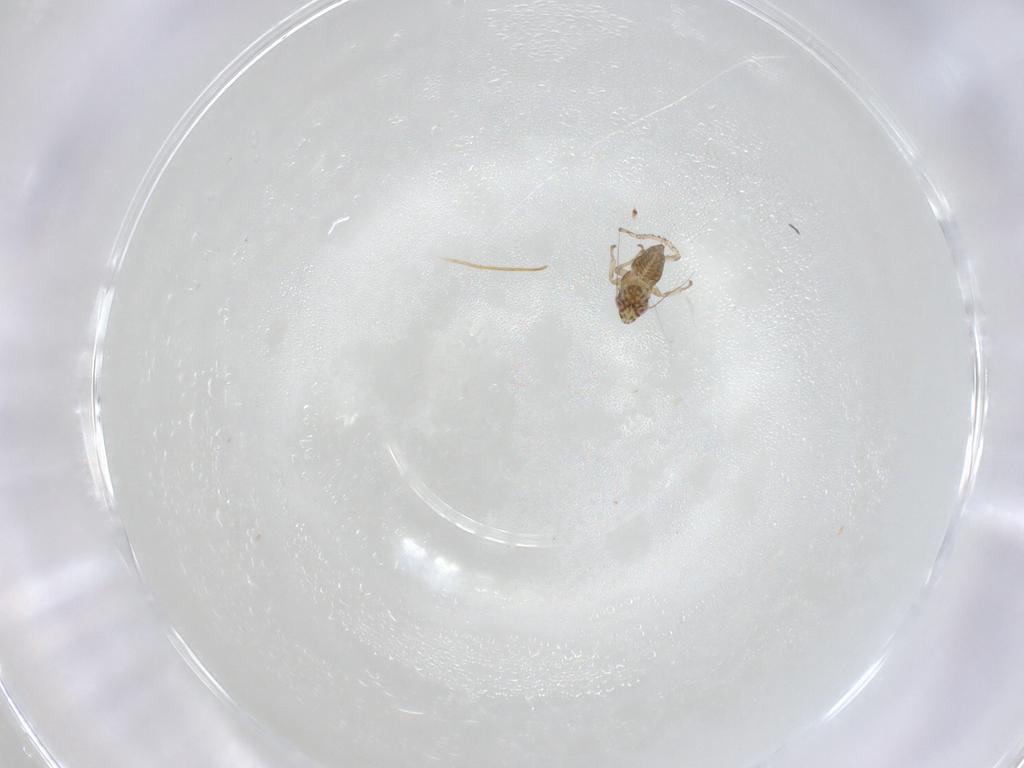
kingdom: Animalia
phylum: Arthropoda
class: Insecta
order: Hemiptera
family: Cicadellidae
